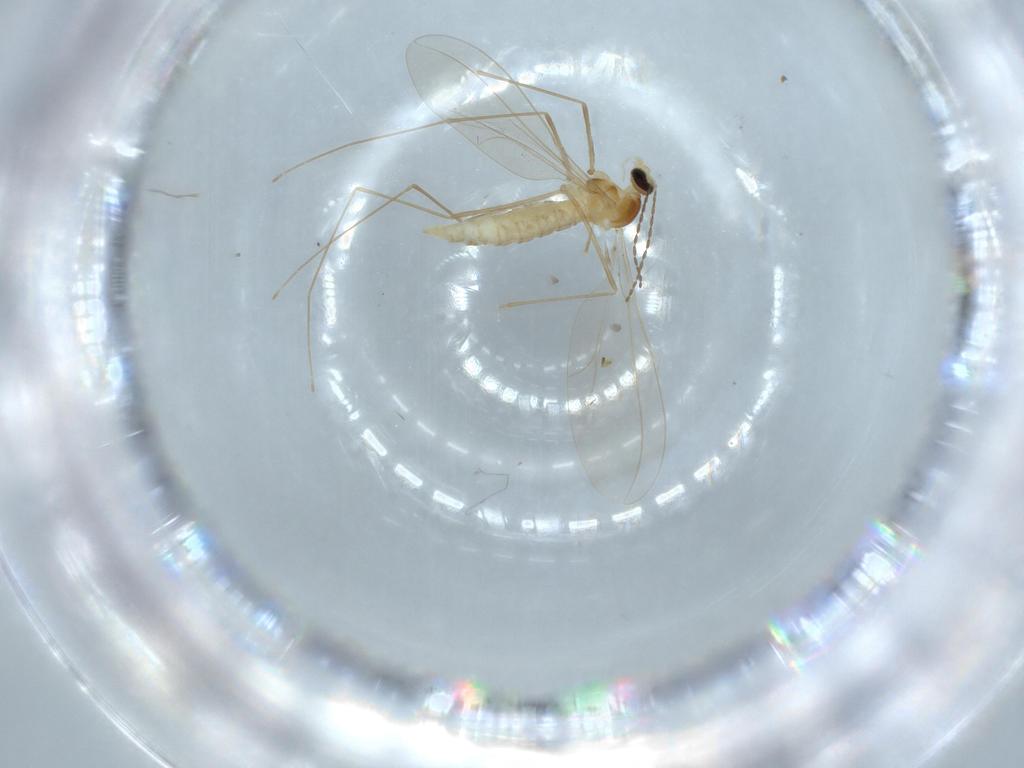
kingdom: Animalia
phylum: Arthropoda
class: Insecta
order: Diptera
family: Cecidomyiidae
